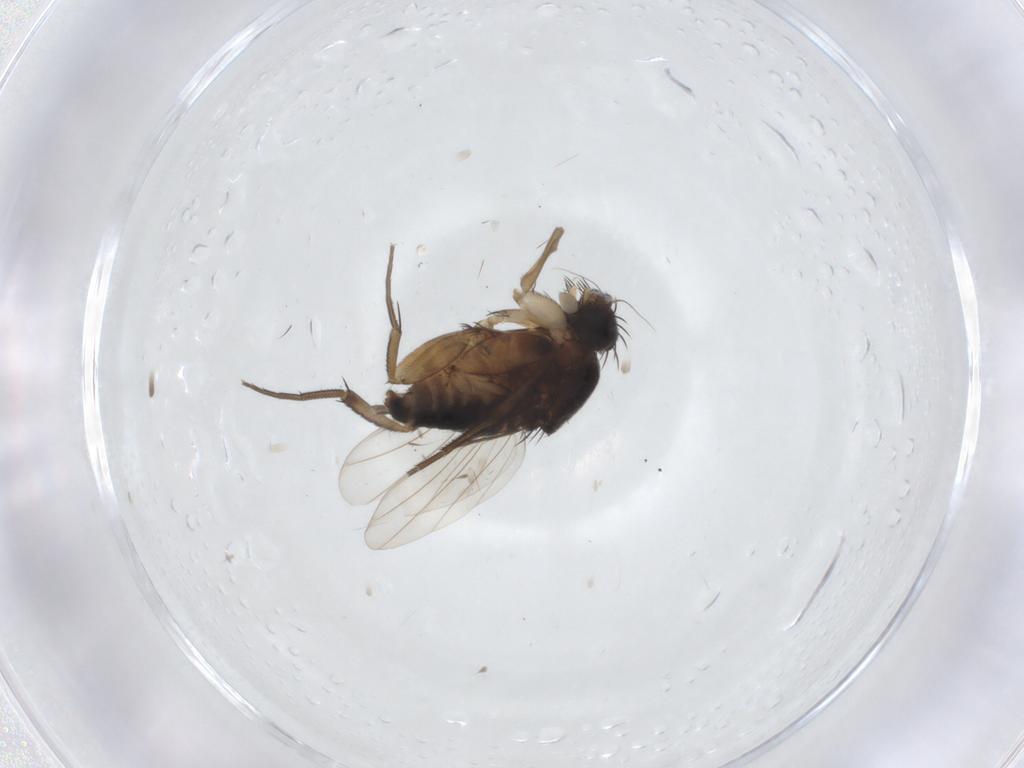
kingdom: Animalia
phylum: Arthropoda
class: Insecta
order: Diptera
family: Phoridae
